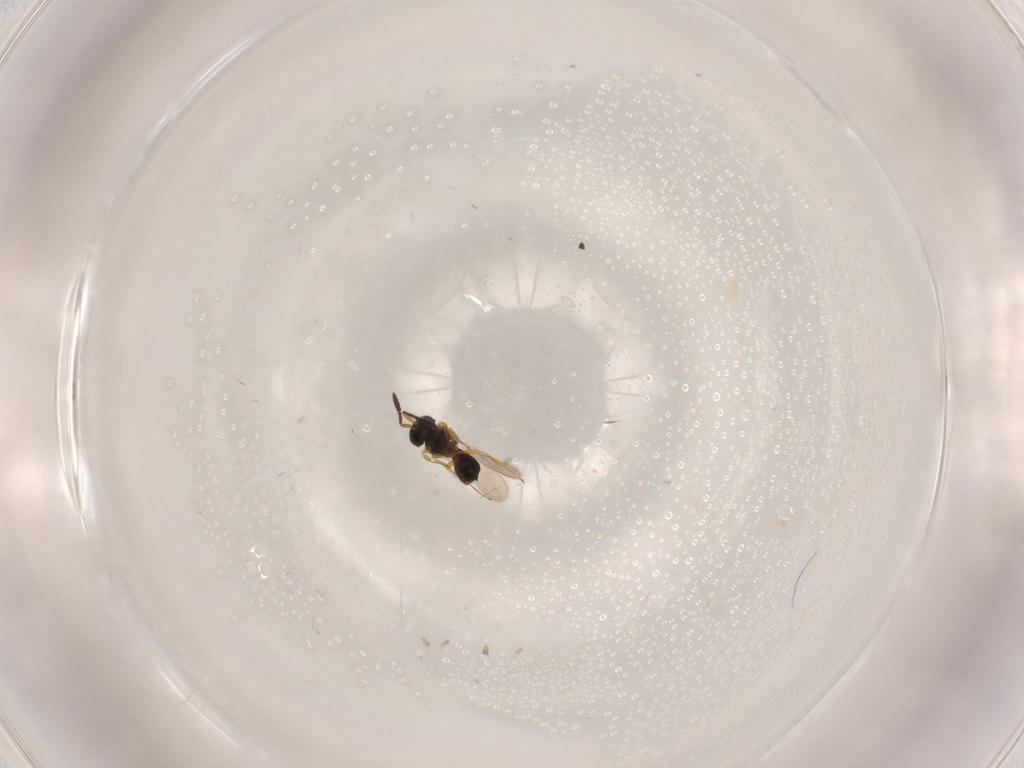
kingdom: Animalia
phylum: Arthropoda
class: Insecta
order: Hymenoptera
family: Scelionidae
